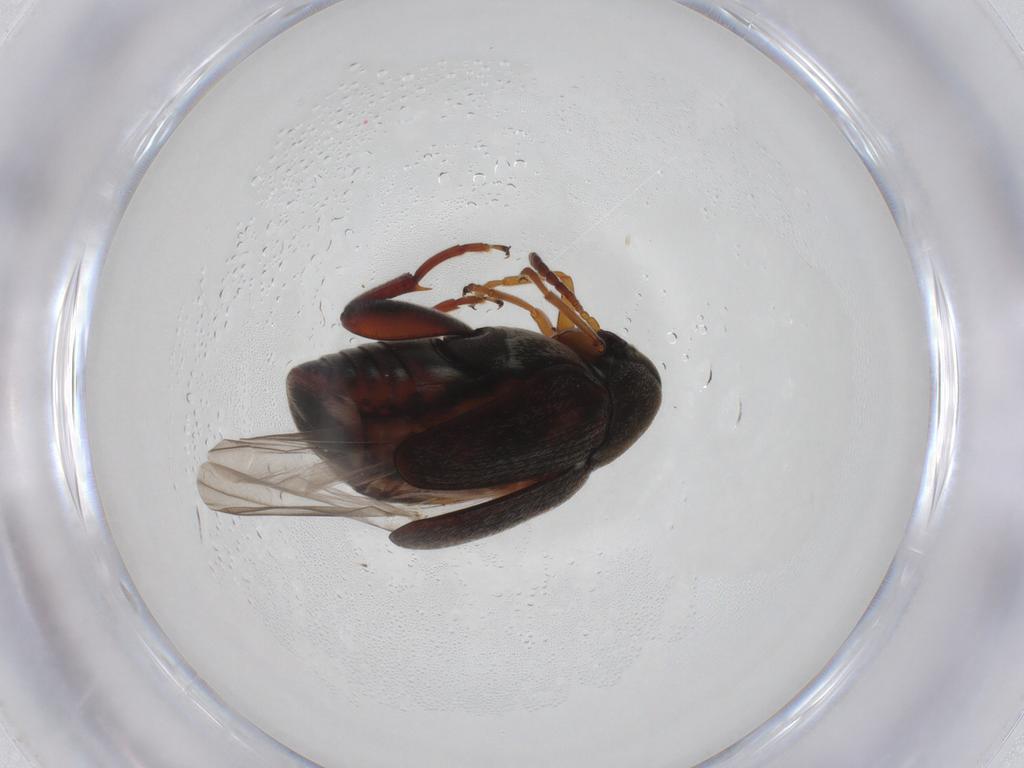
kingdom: Animalia
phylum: Arthropoda
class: Insecta
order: Coleoptera
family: Chrysomelidae
